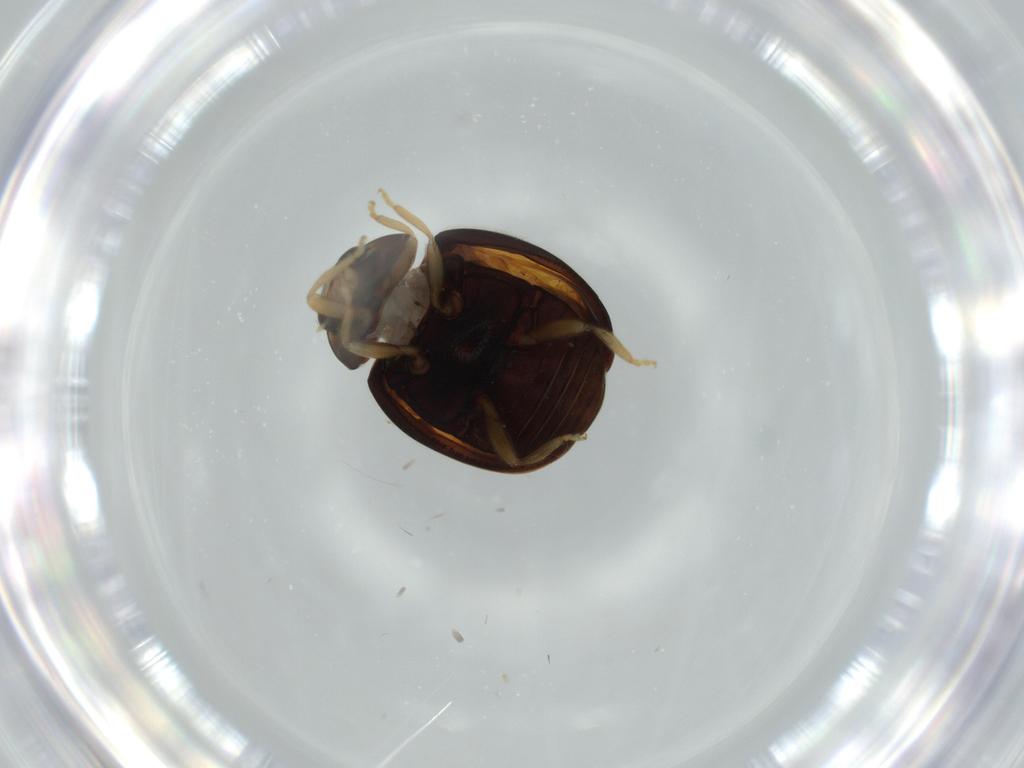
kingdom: Animalia
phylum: Arthropoda
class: Insecta
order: Coleoptera
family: Coccinellidae
